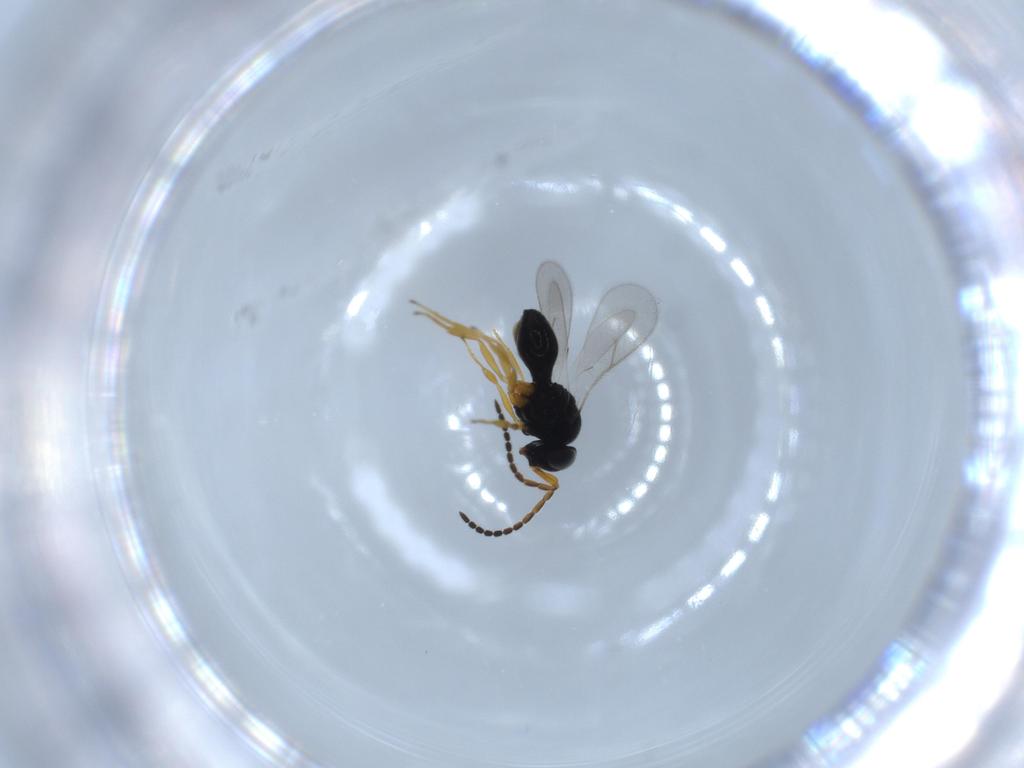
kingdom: Animalia
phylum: Arthropoda
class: Insecta
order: Hymenoptera
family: Scelionidae
